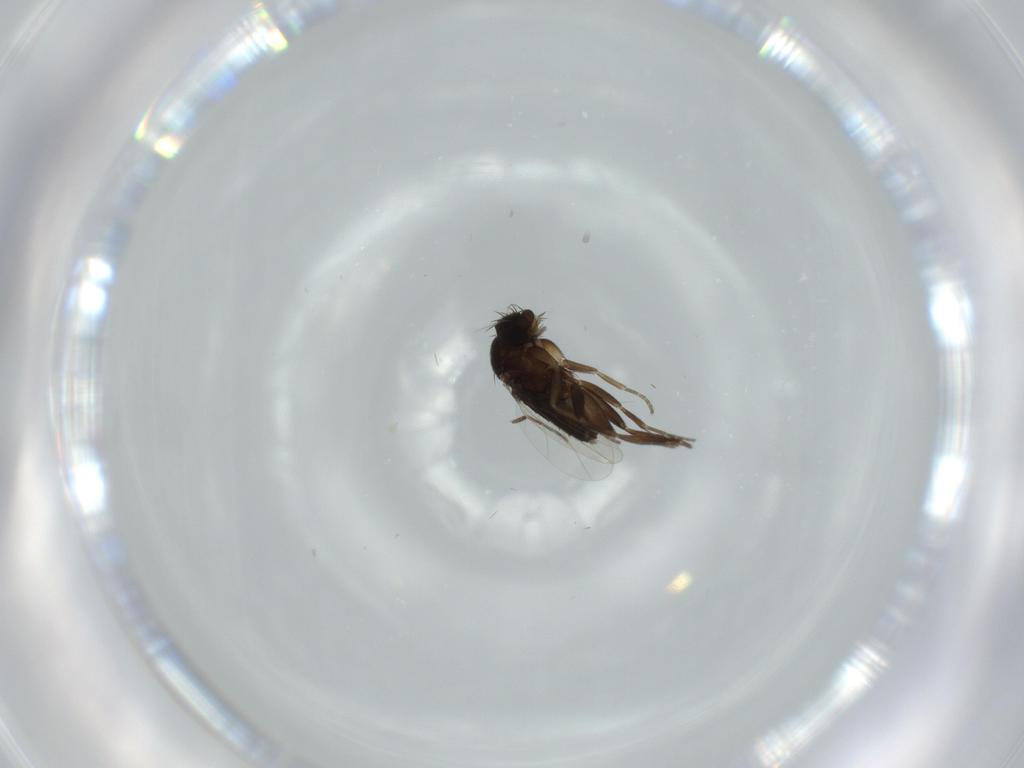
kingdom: Animalia
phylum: Arthropoda
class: Insecta
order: Diptera
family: Phoridae
